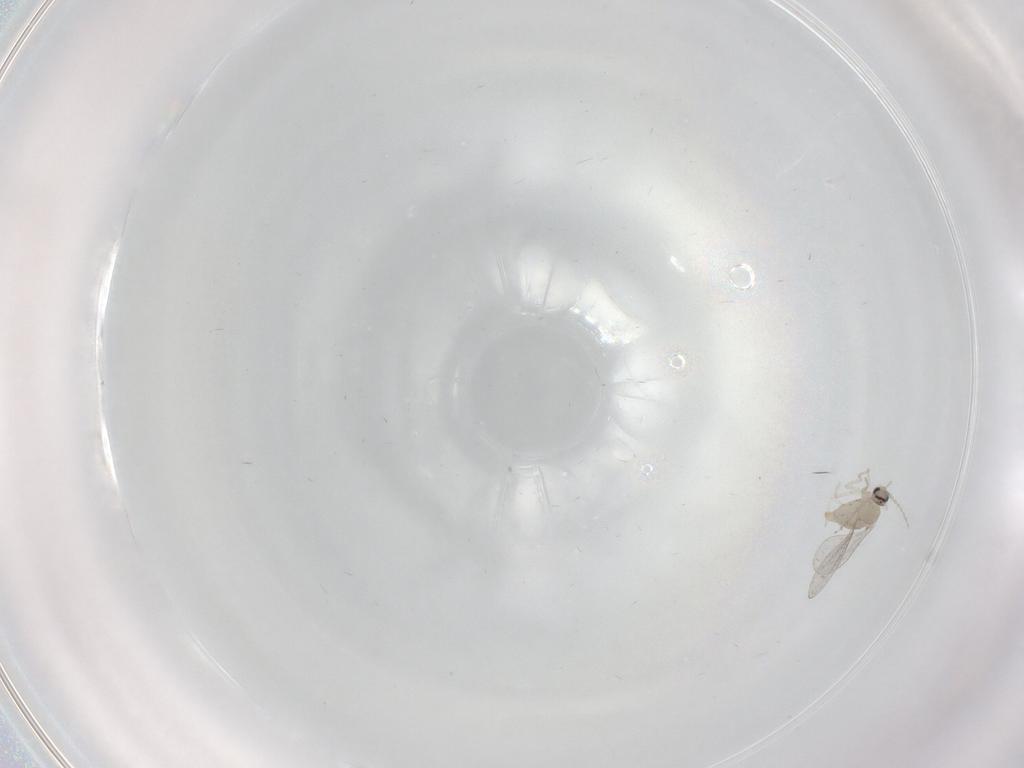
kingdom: Animalia
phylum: Arthropoda
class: Insecta
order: Diptera
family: Cecidomyiidae
